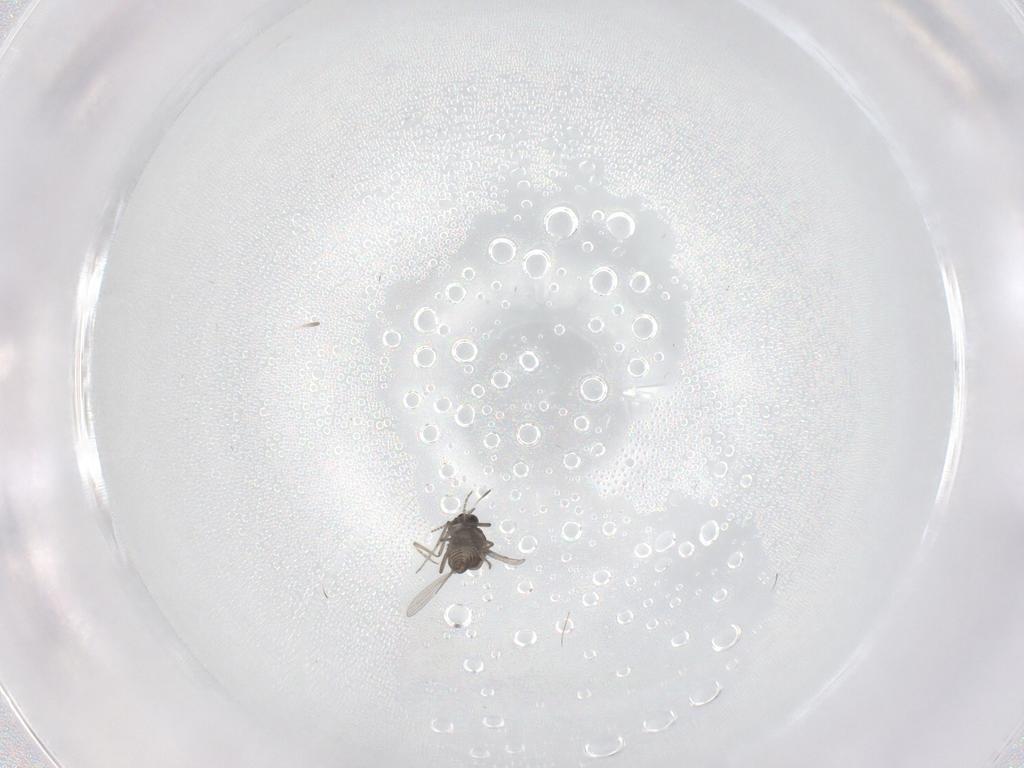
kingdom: Animalia
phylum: Arthropoda
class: Insecta
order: Diptera
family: Ceratopogonidae
